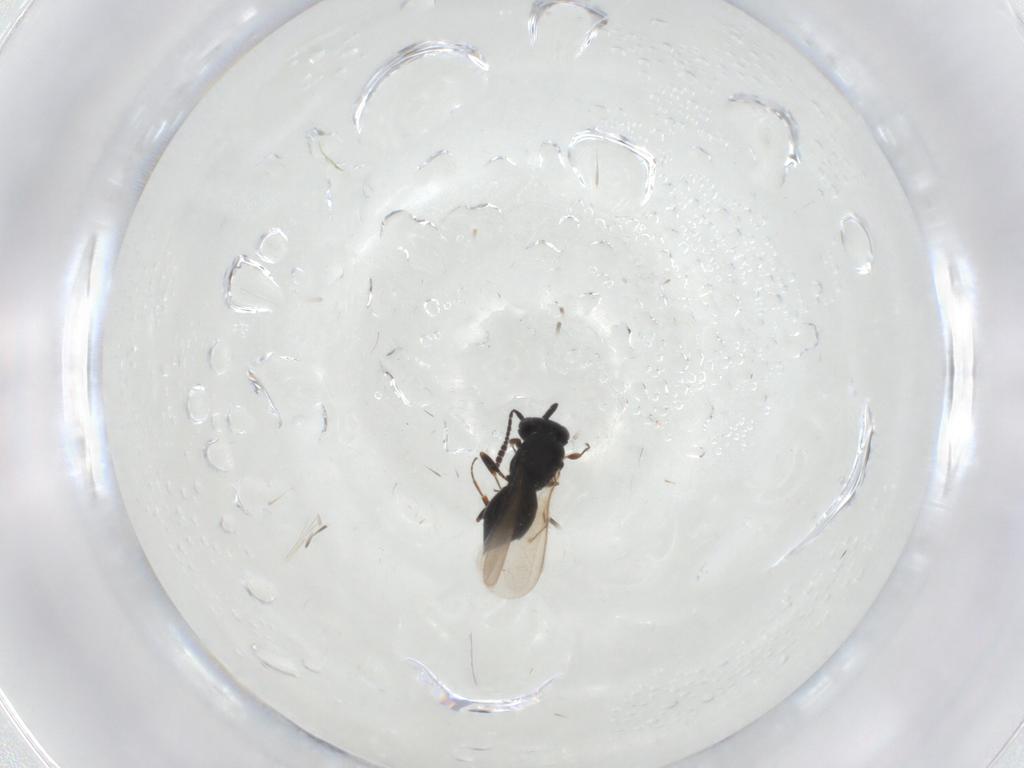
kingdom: Animalia
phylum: Arthropoda
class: Insecta
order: Hymenoptera
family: Scelionidae
